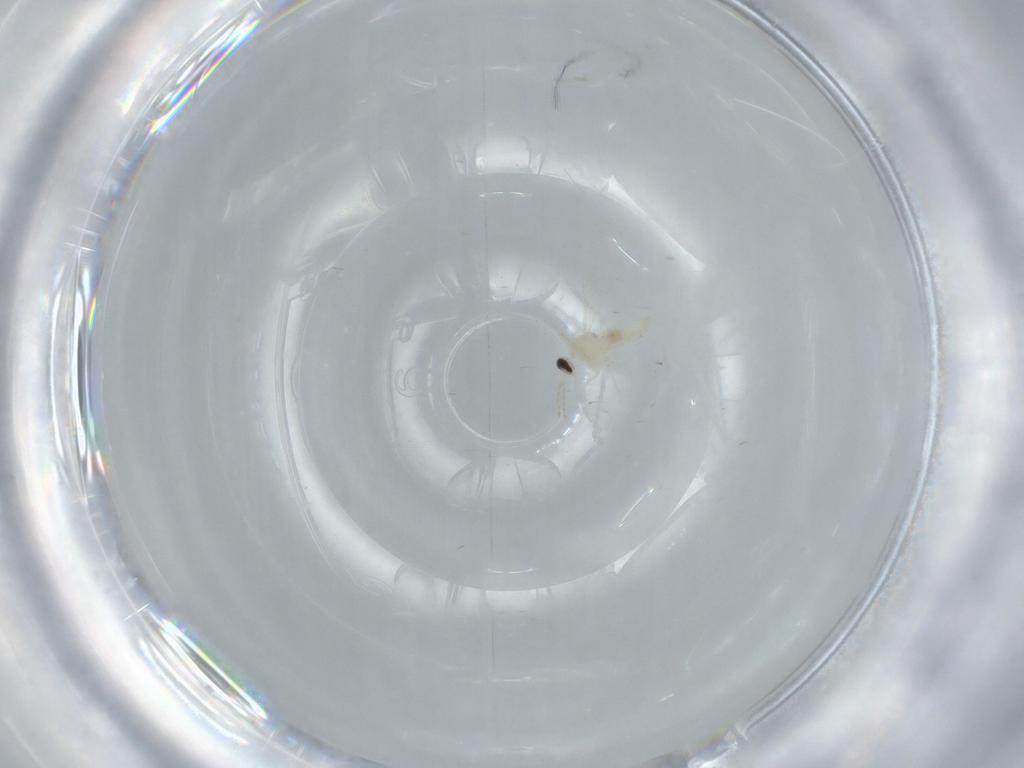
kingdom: Animalia
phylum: Arthropoda
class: Insecta
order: Diptera
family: Cecidomyiidae
